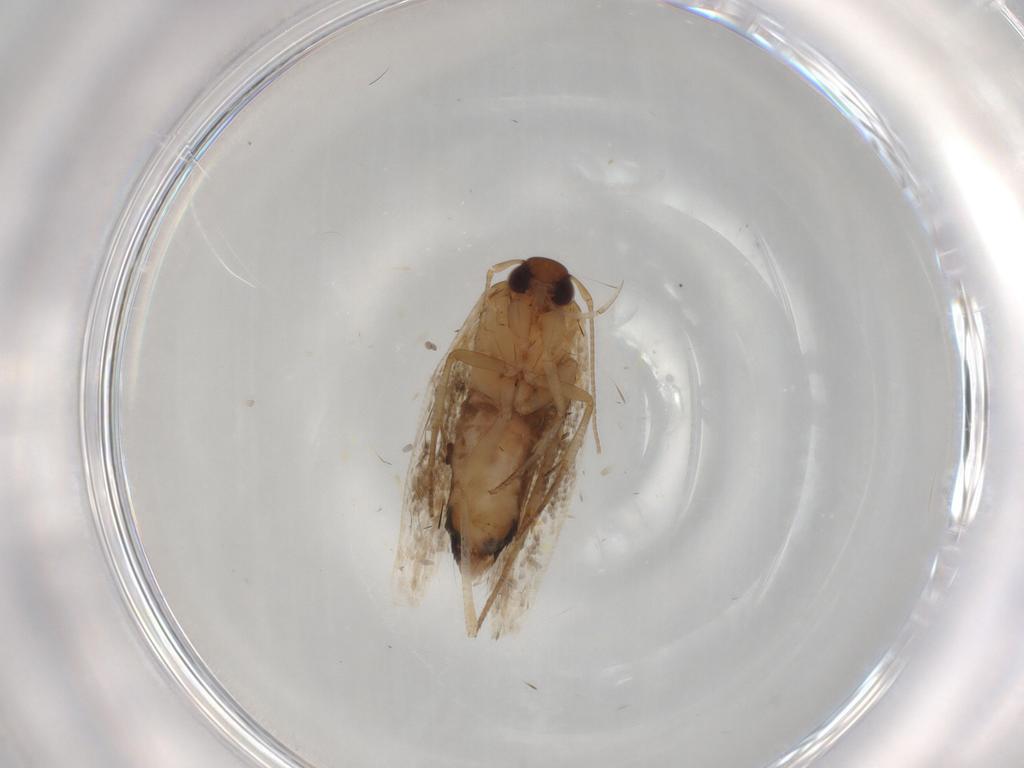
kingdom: Animalia
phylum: Arthropoda
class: Insecta
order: Lepidoptera
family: Cosmopterigidae
